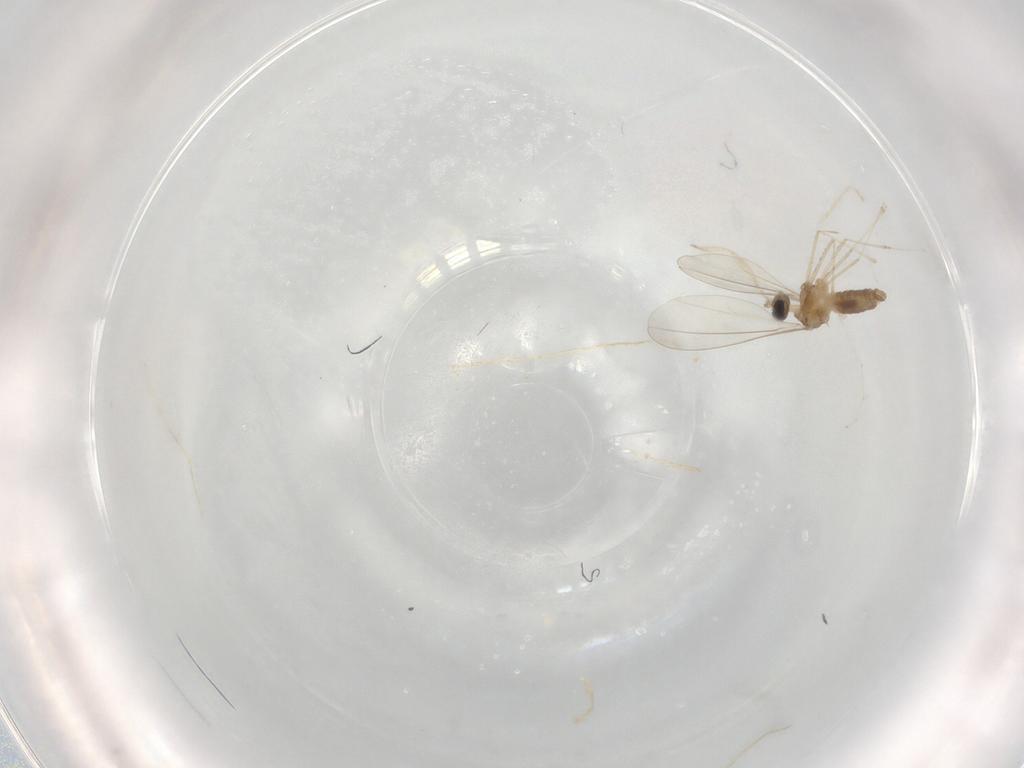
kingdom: Animalia
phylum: Arthropoda
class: Insecta
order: Diptera
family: Cecidomyiidae
